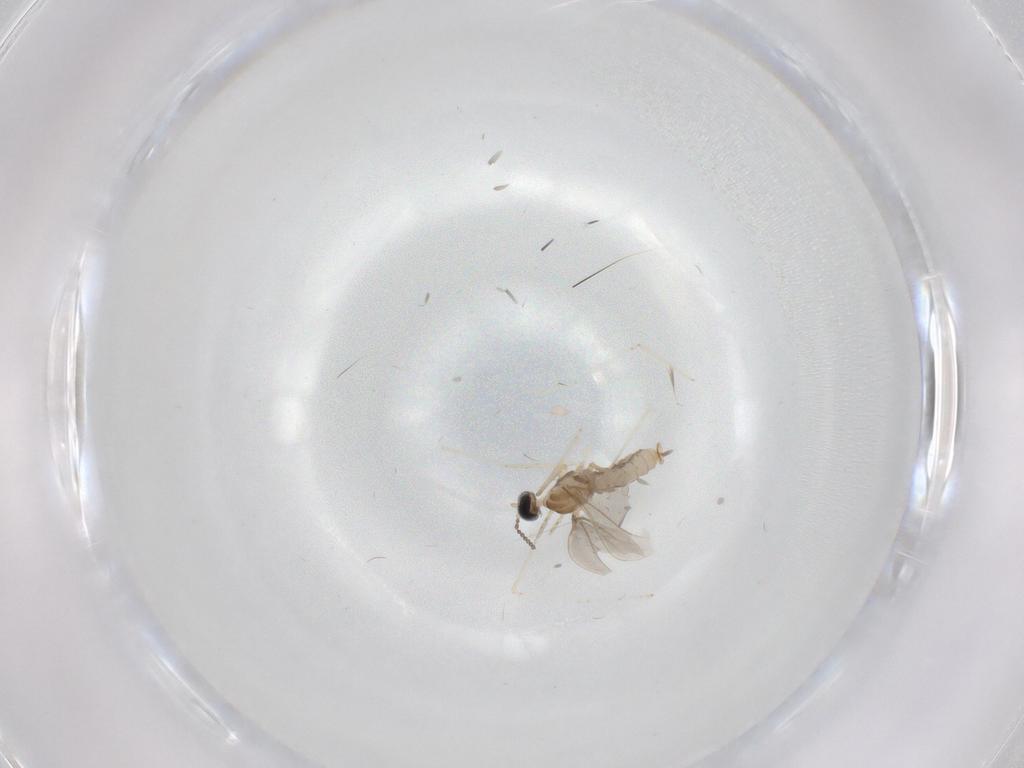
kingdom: Animalia
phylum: Arthropoda
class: Insecta
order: Diptera
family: Cecidomyiidae
